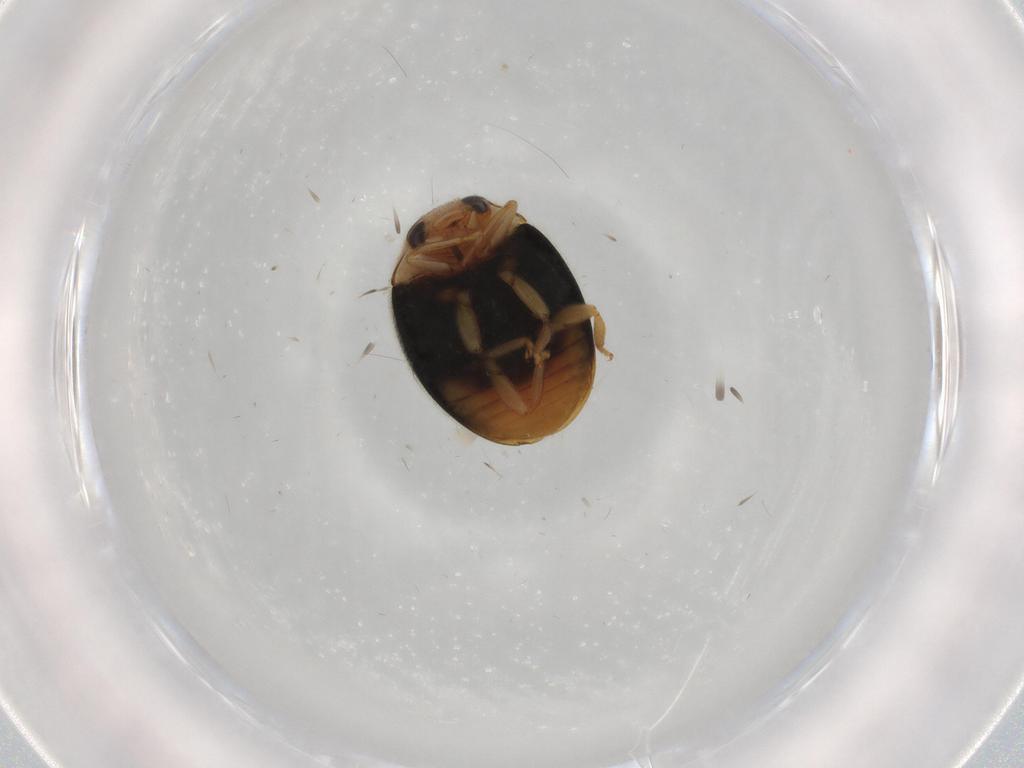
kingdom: Animalia
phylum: Arthropoda
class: Insecta
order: Coleoptera
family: Coccinellidae
